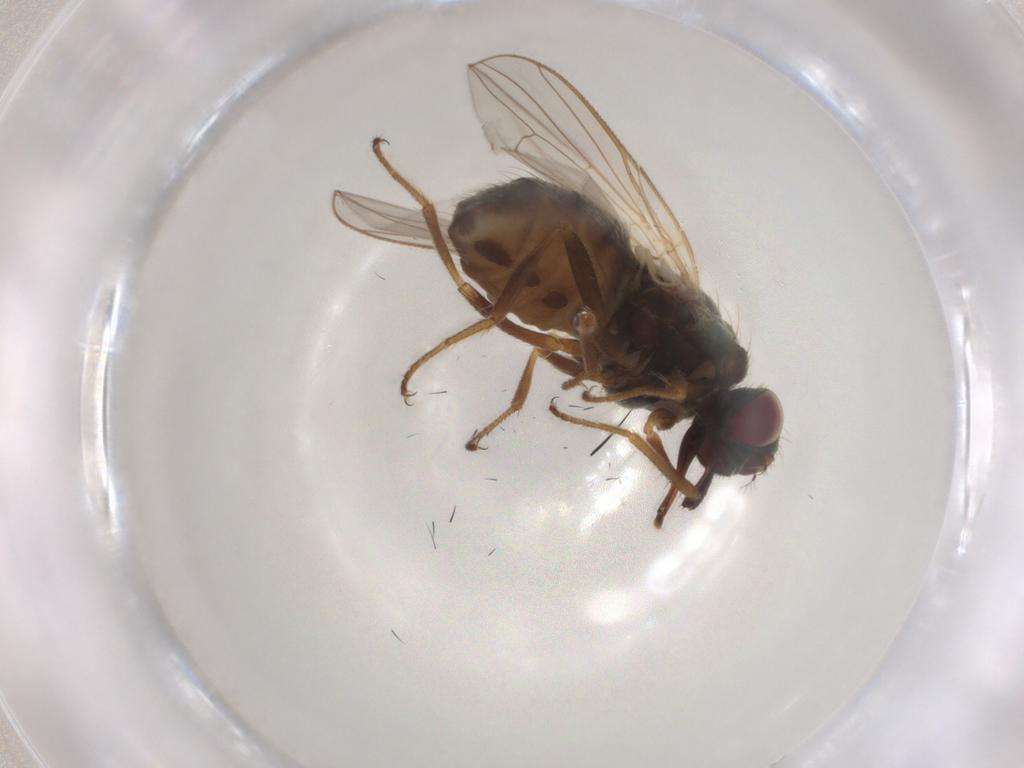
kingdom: Animalia
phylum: Arthropoda
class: Insecta
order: Diptera
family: Muscidae
